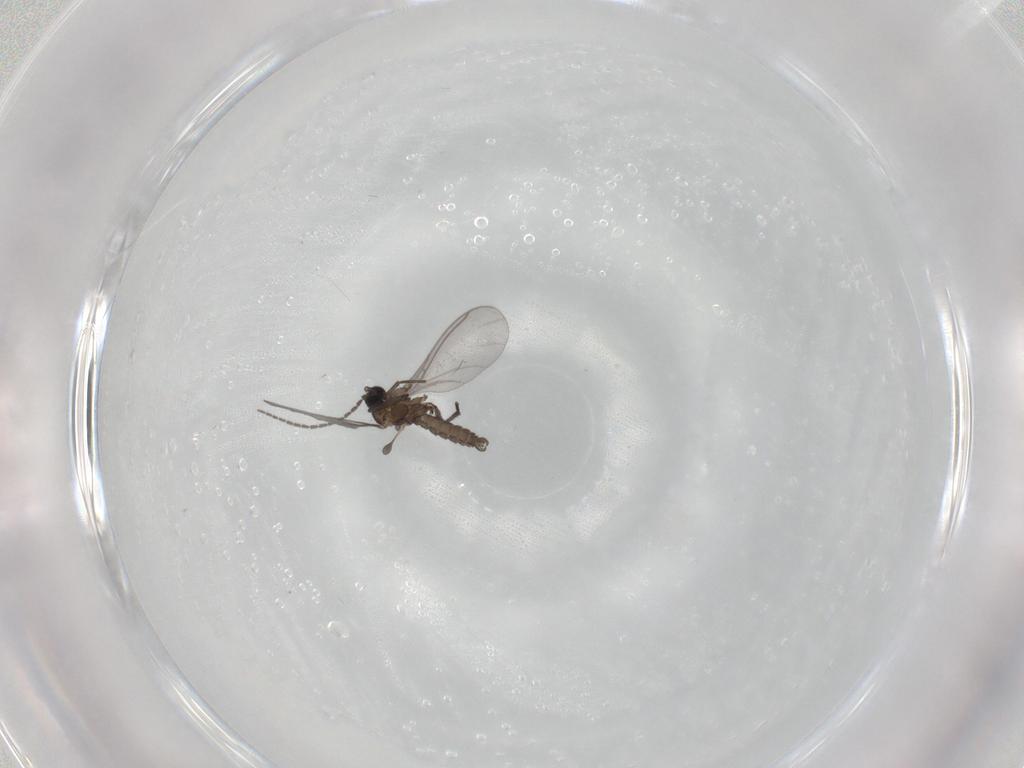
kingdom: Animalia
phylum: Arthropoda
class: Insecta
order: Diptera
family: Sciaridae
